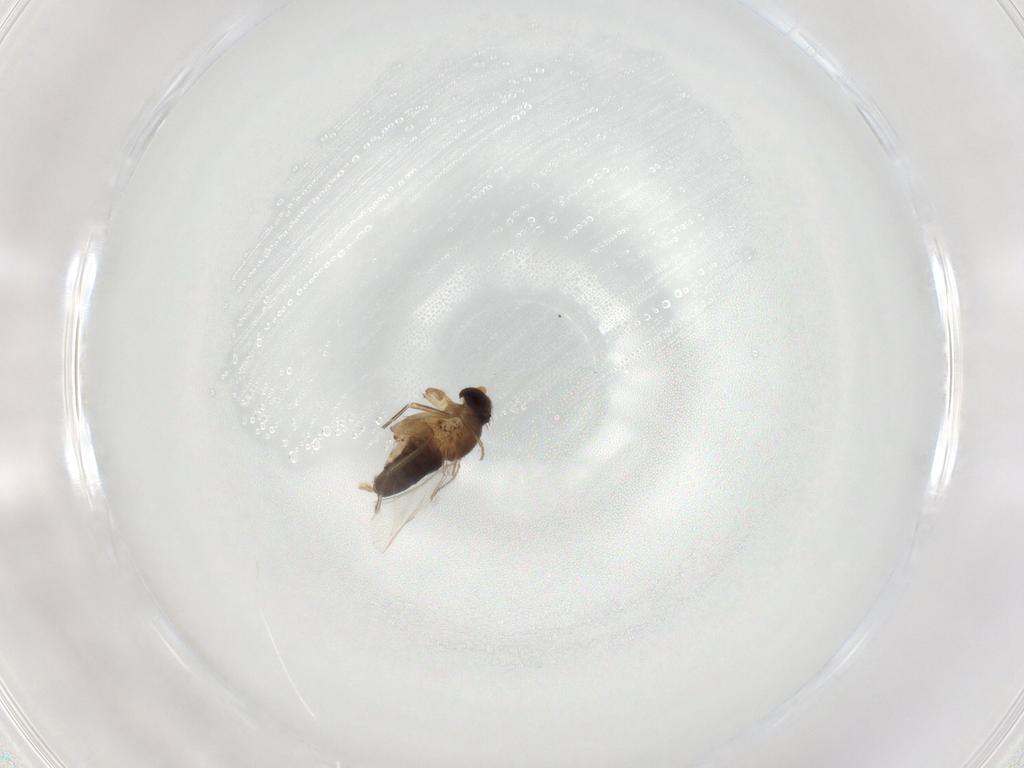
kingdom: Animalia
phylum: Arthropoda
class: Insecta
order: Diptera
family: Phoridae
